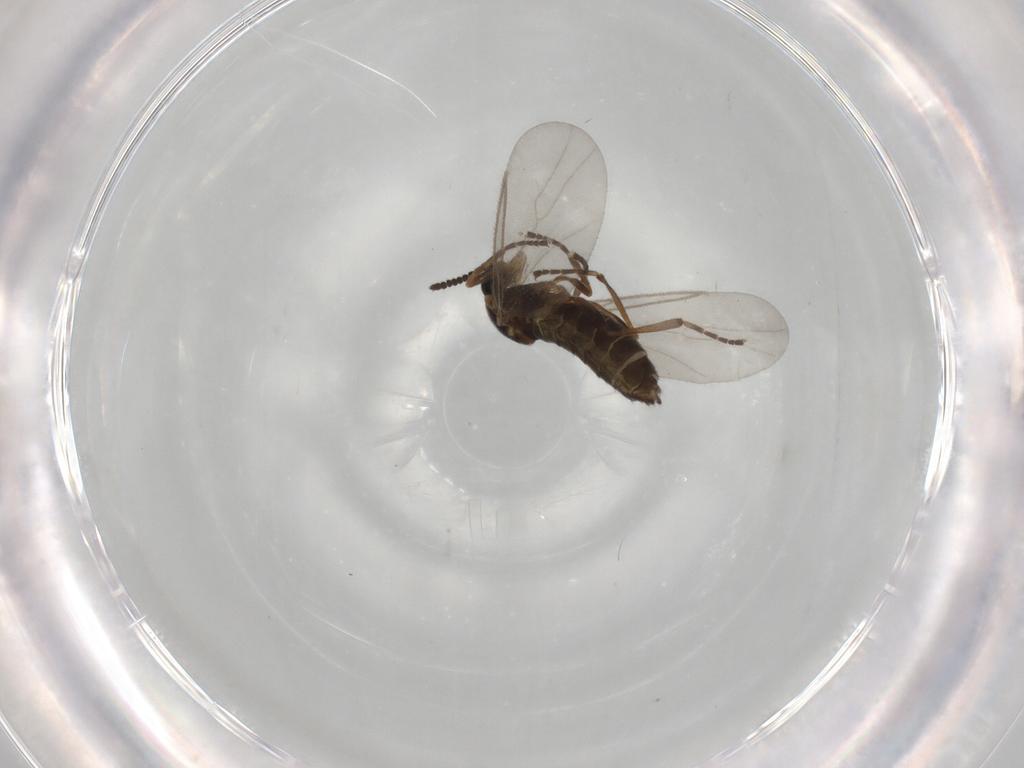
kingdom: Animalia
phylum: Arthropoda
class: Insecta
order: Diptera
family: Scatopsidae
